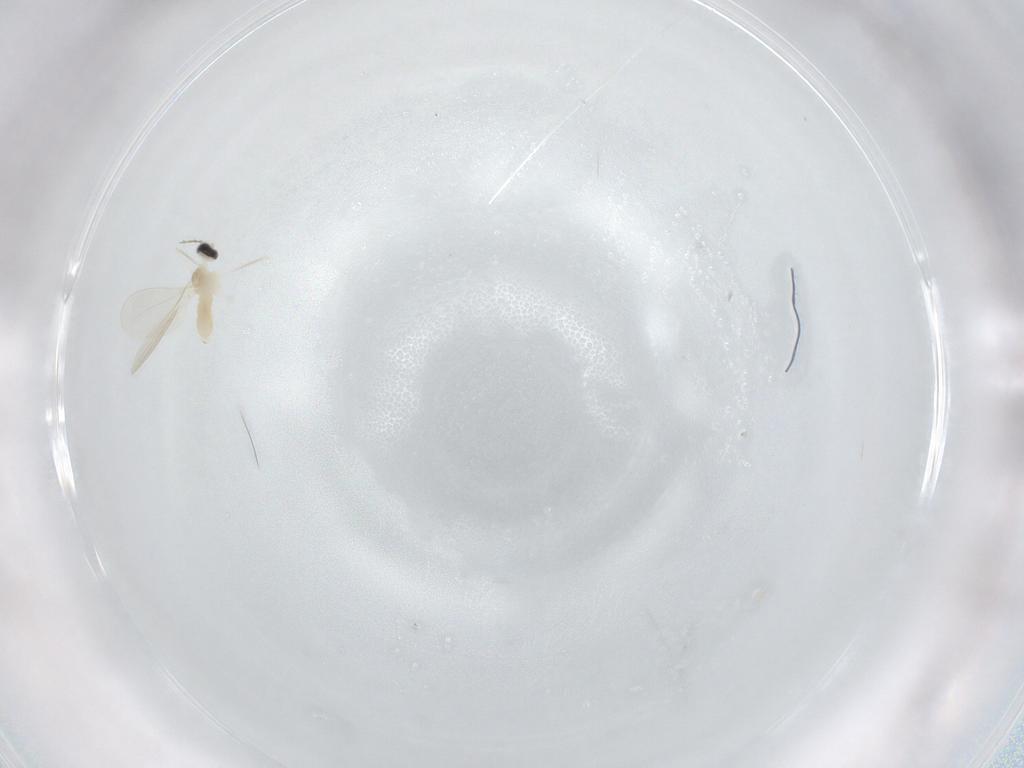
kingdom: Animalia
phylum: Arthropoda
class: Insecta
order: Diptera
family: Cecidomyiidae
